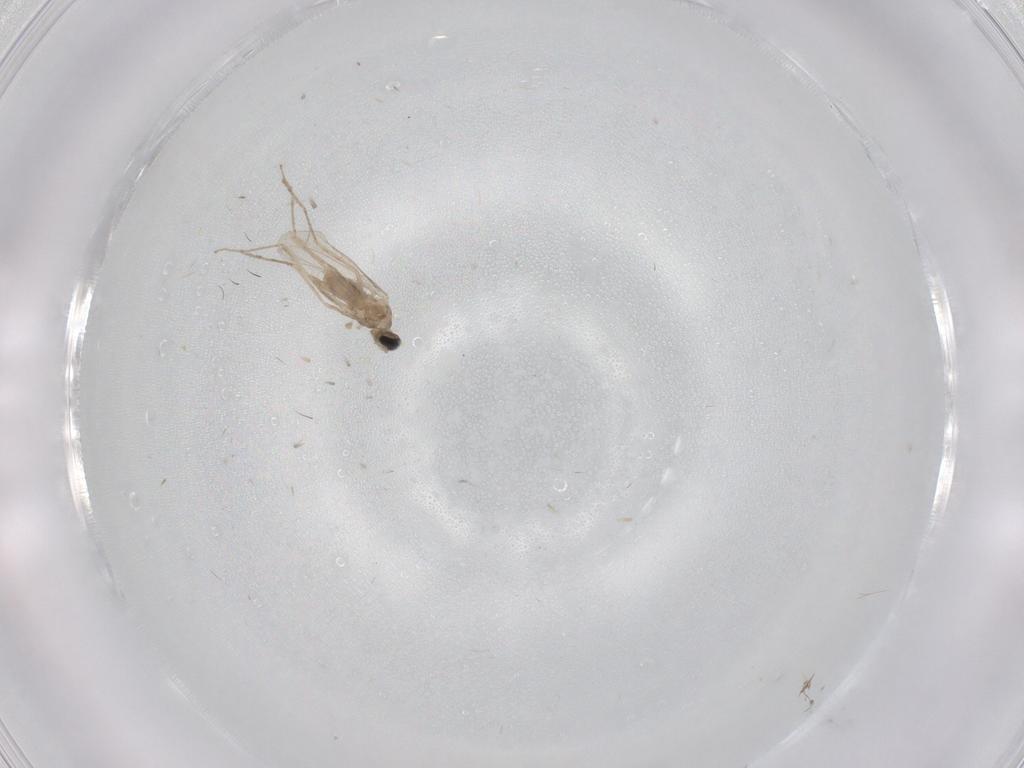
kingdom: Animalia
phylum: Arthropoda
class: Insecta
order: Diptera
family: Cecidomyiidae
